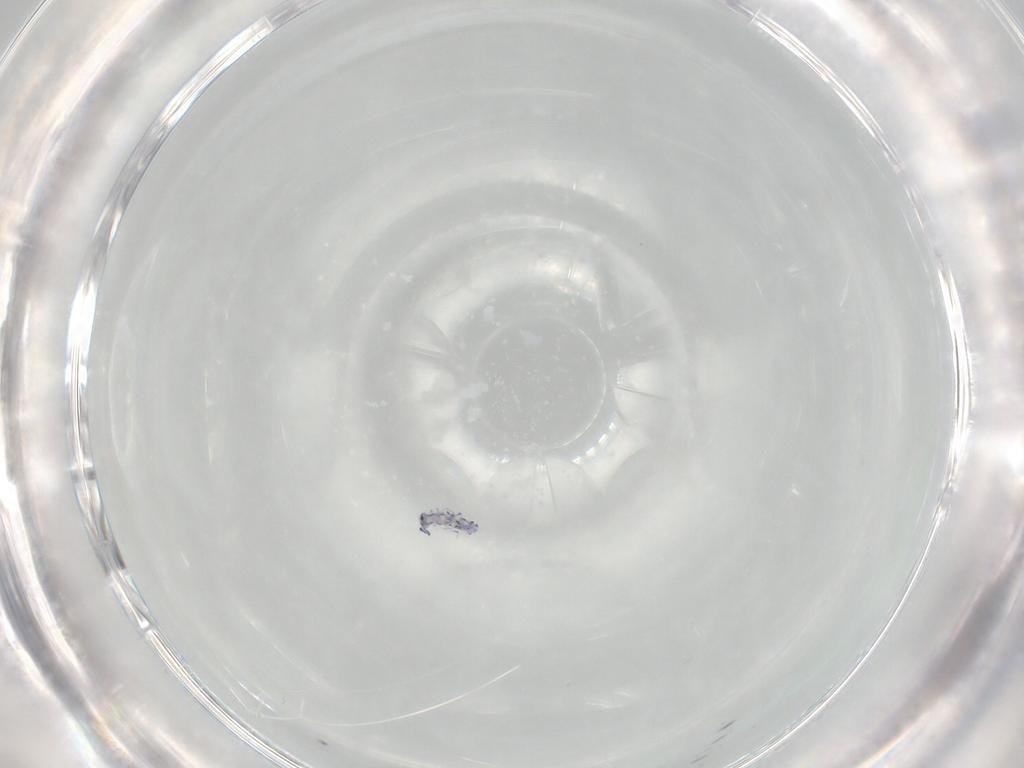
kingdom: Animalia
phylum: Arthropoda
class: Collembola
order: Entomobryomorpha
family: Entomobryidae
